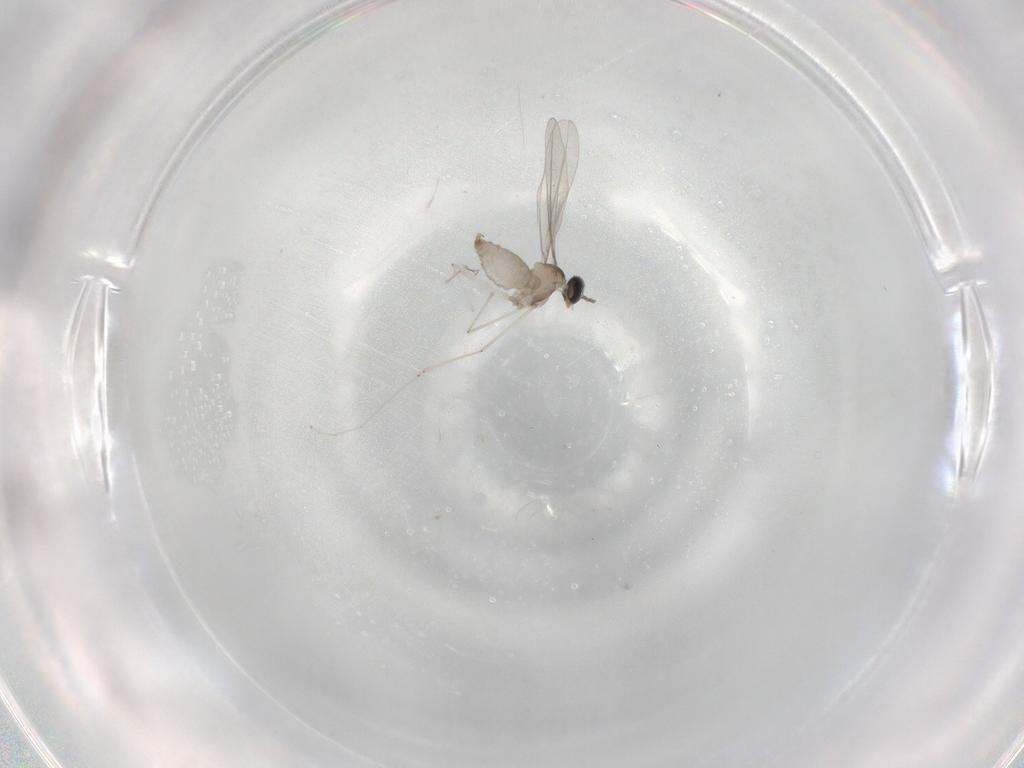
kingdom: Animalia
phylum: Arthropoda
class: Insecta
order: Diptera
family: Cecidomyiidae
